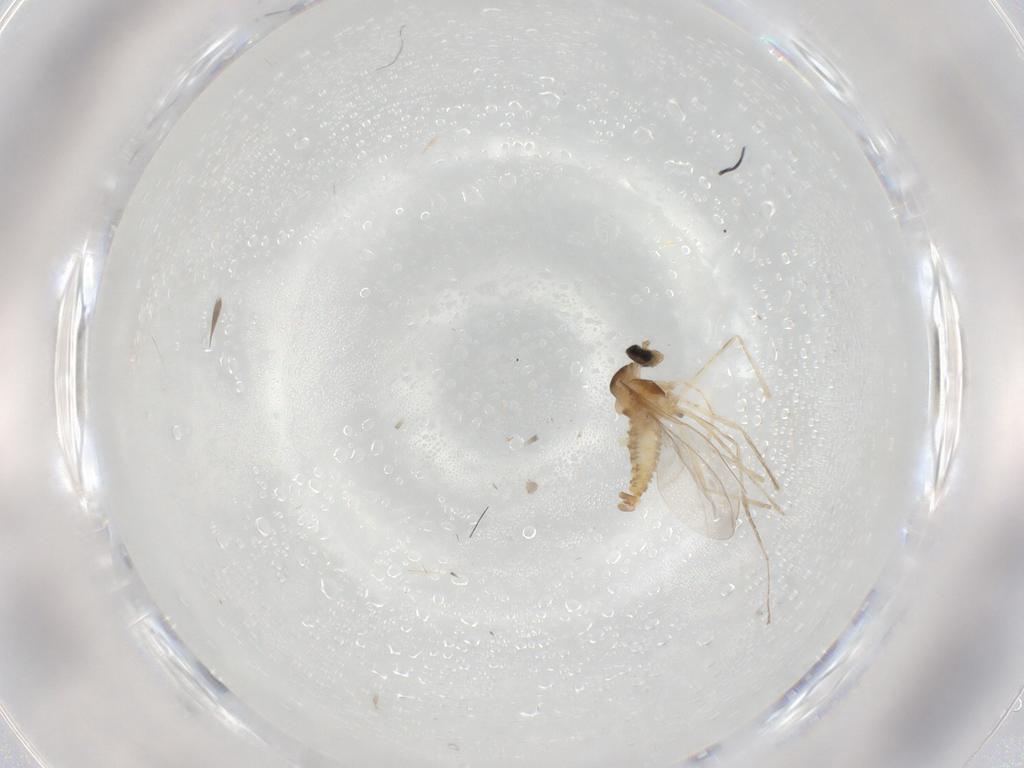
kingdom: Animalia
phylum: Arthropoda
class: Insecta
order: Diptera
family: Cecidomyiidae
